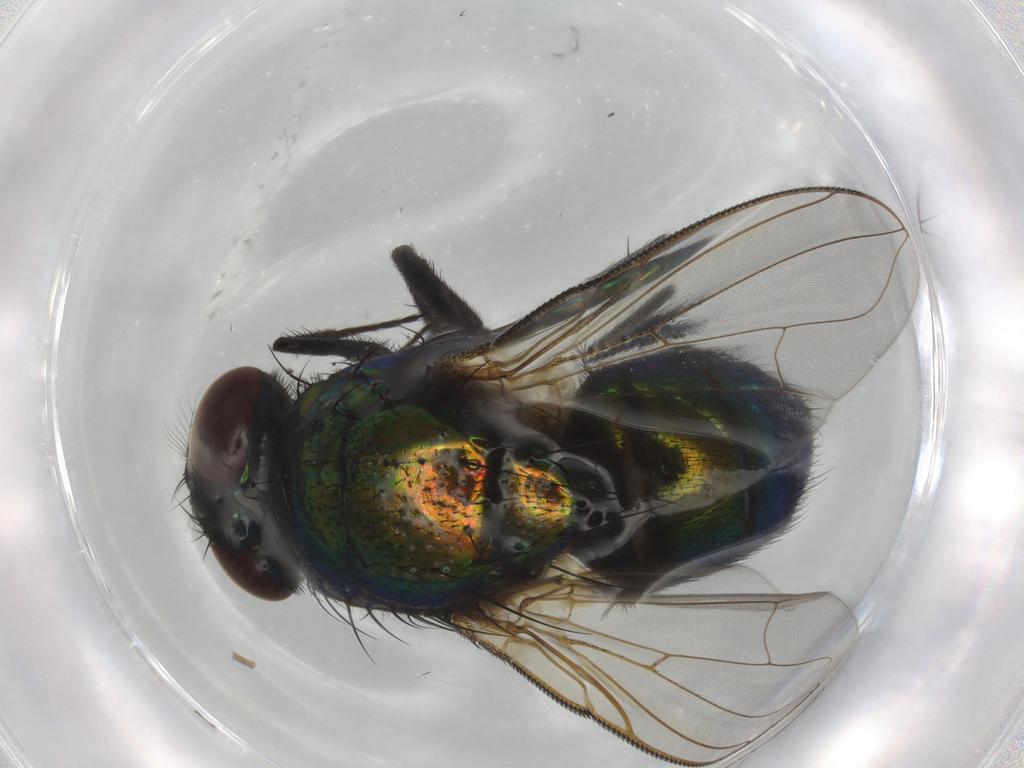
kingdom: Animalia
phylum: Arthropoda
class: Insecta
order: Diptera
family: Muscidae
